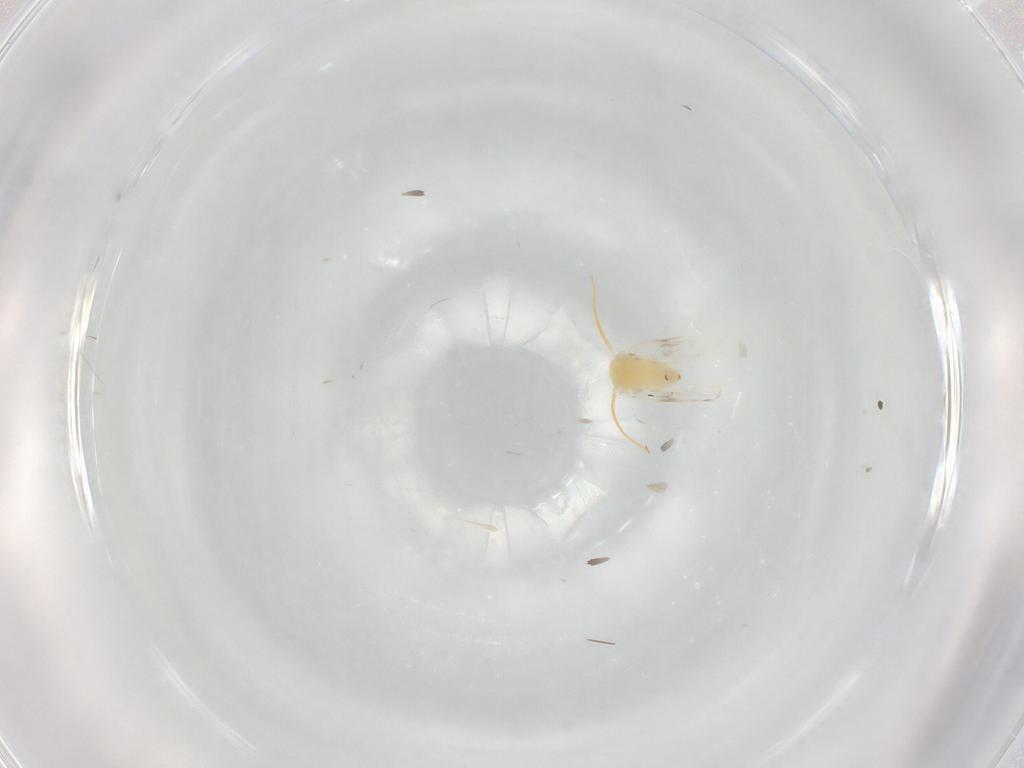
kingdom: Animalia
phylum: Arthropoda
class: Insecta
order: Hemiptera
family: Aleyrodidae
